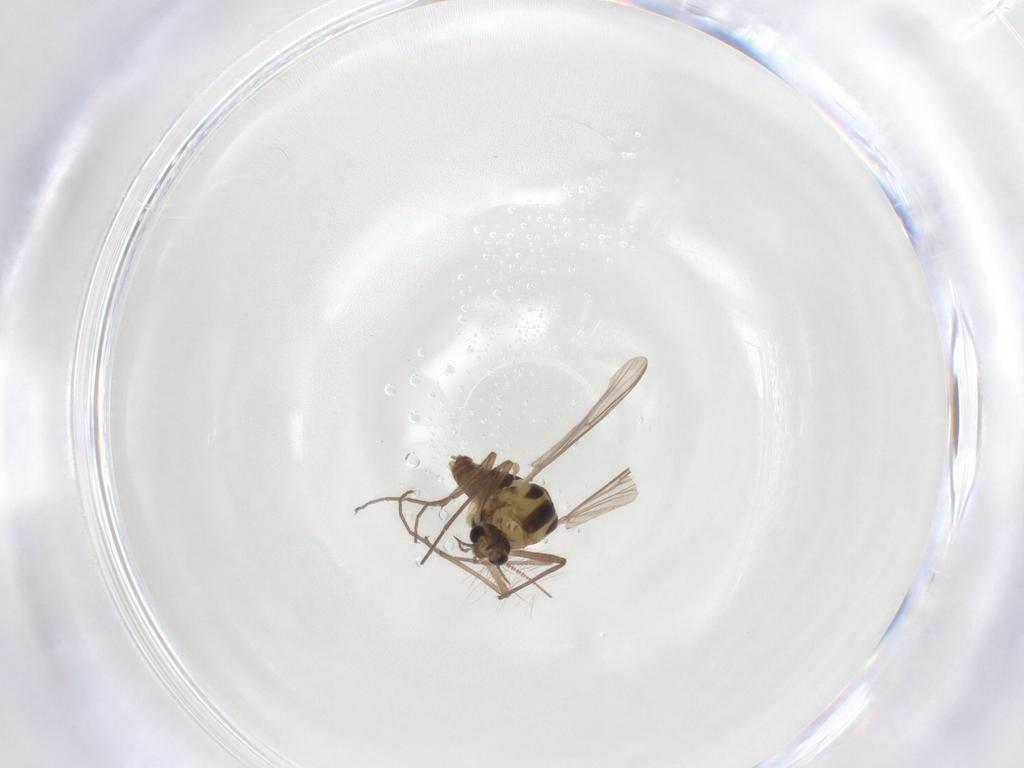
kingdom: Animalia
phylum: Arthropoda
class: Insecta
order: Diptera
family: Chironomidae
